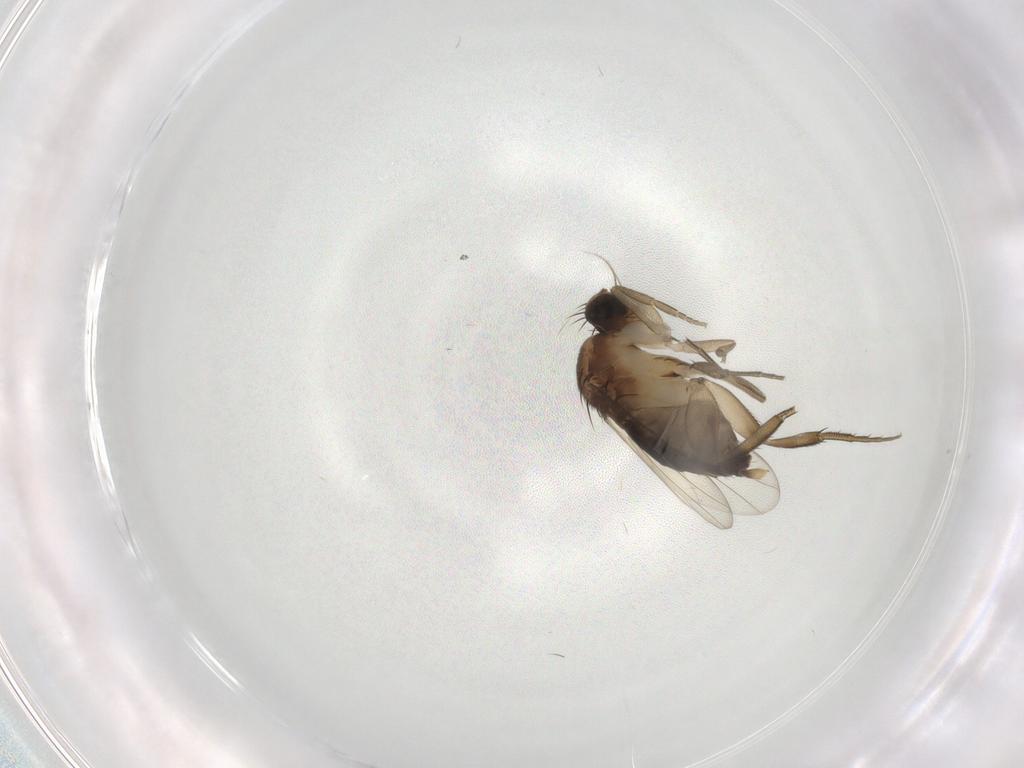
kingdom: Animalia
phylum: Arthropoda
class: Insecta
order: Diptera
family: Phoridae
